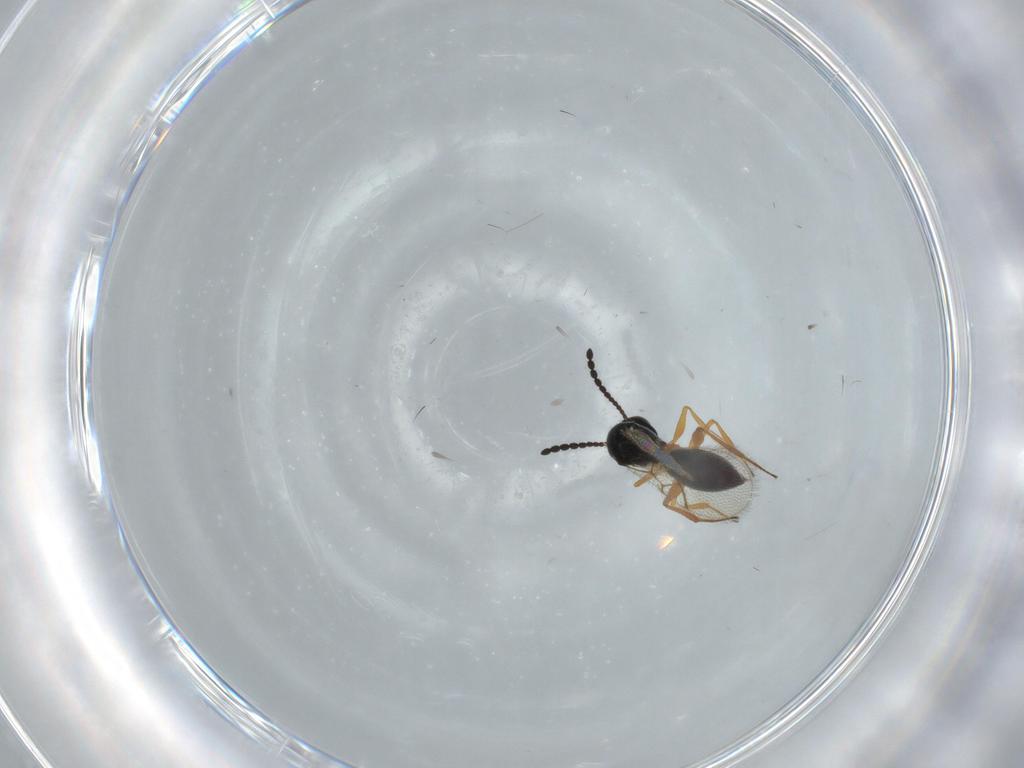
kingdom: Animalia
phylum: Arthropoda
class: Insecta
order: Hymenoptera
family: Figitidae
